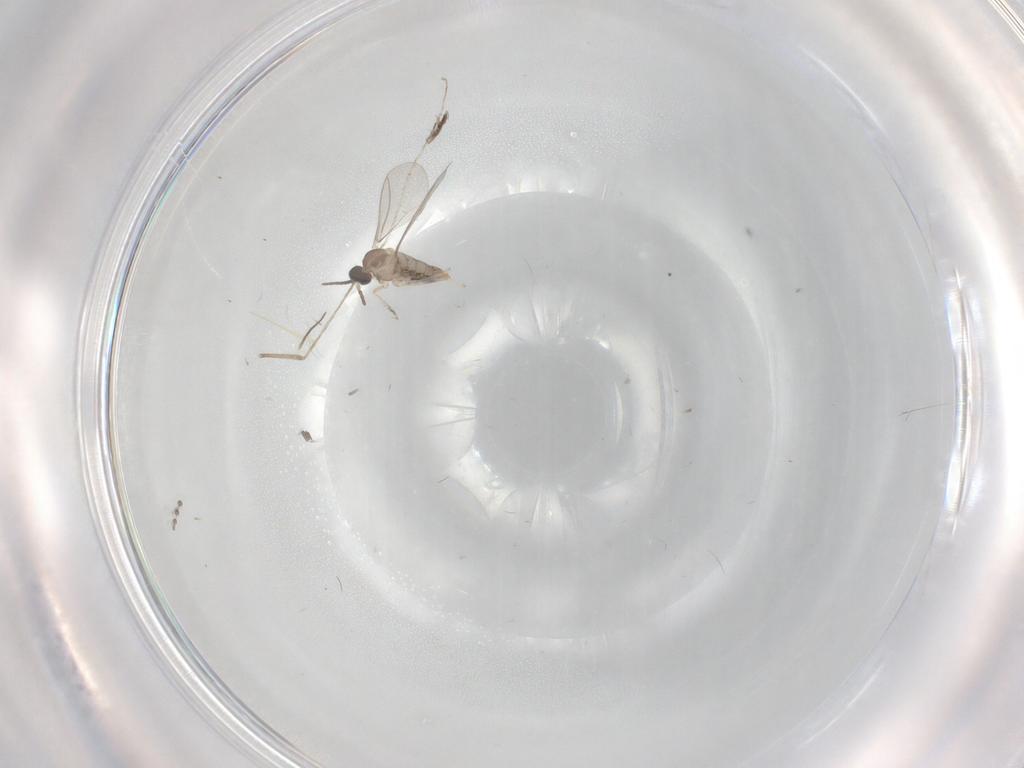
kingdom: Animalia
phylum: Arthropoda
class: Insecta
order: Diptera
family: Cecidomyiidae
